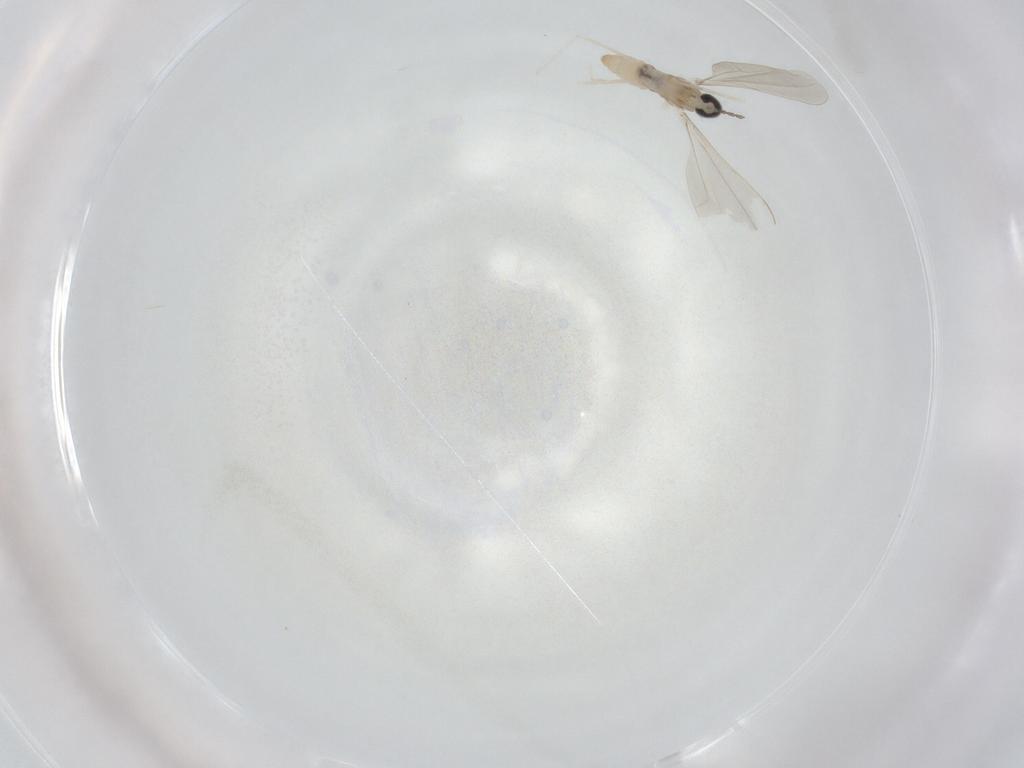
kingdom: Animalia
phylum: Arthropoda
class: Insecta
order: Diptera
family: Cecidomyiidae
